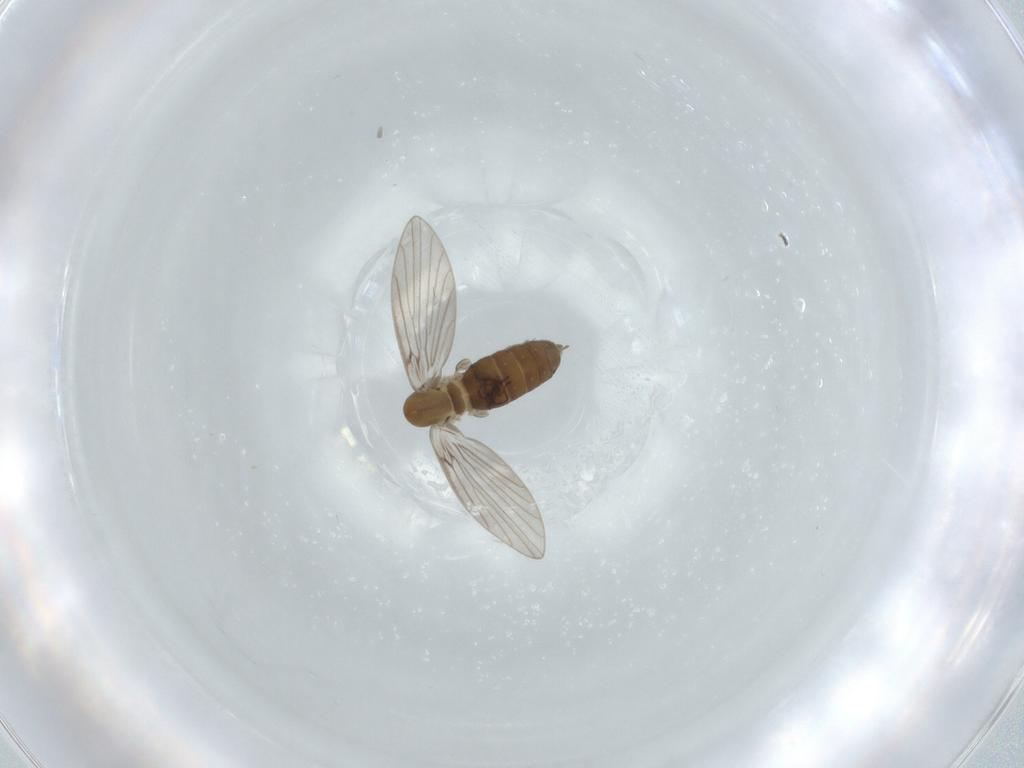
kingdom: Animalia
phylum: Arthropoda
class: Insecta
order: Diptera
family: Psychodidae
